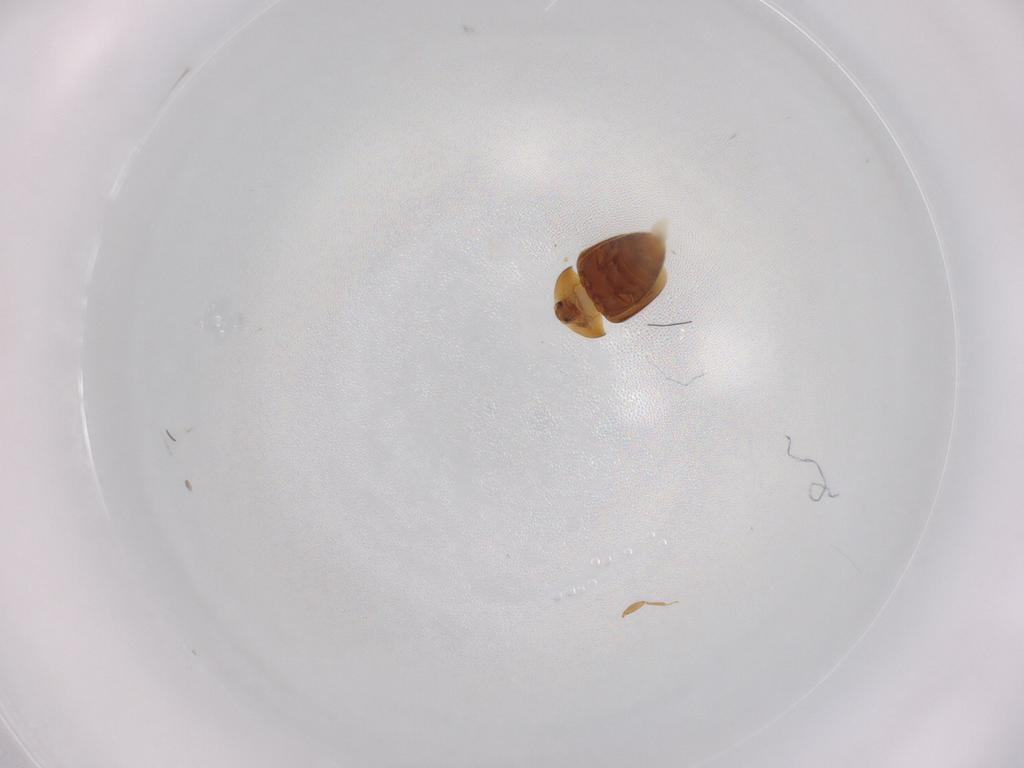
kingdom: Animalia
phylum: Arthropoda
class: Insecta
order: Coleoptera
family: Corylophidae
